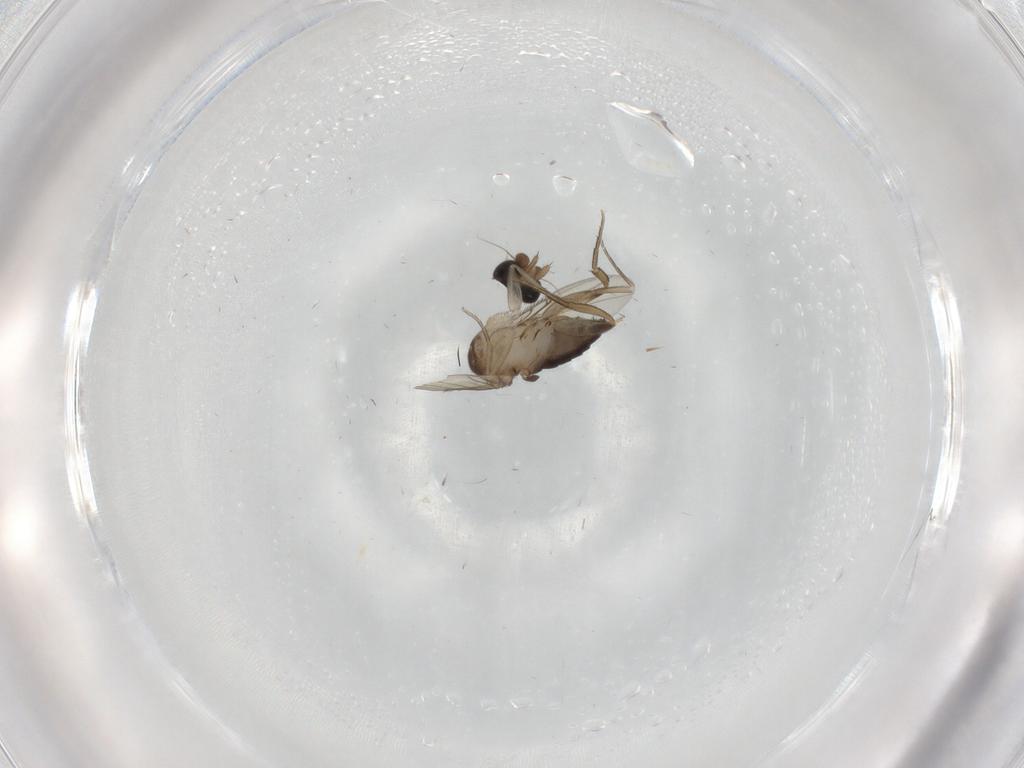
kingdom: Animalia
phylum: Arthropoda
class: Insecta
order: Diptera
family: Phoridae
